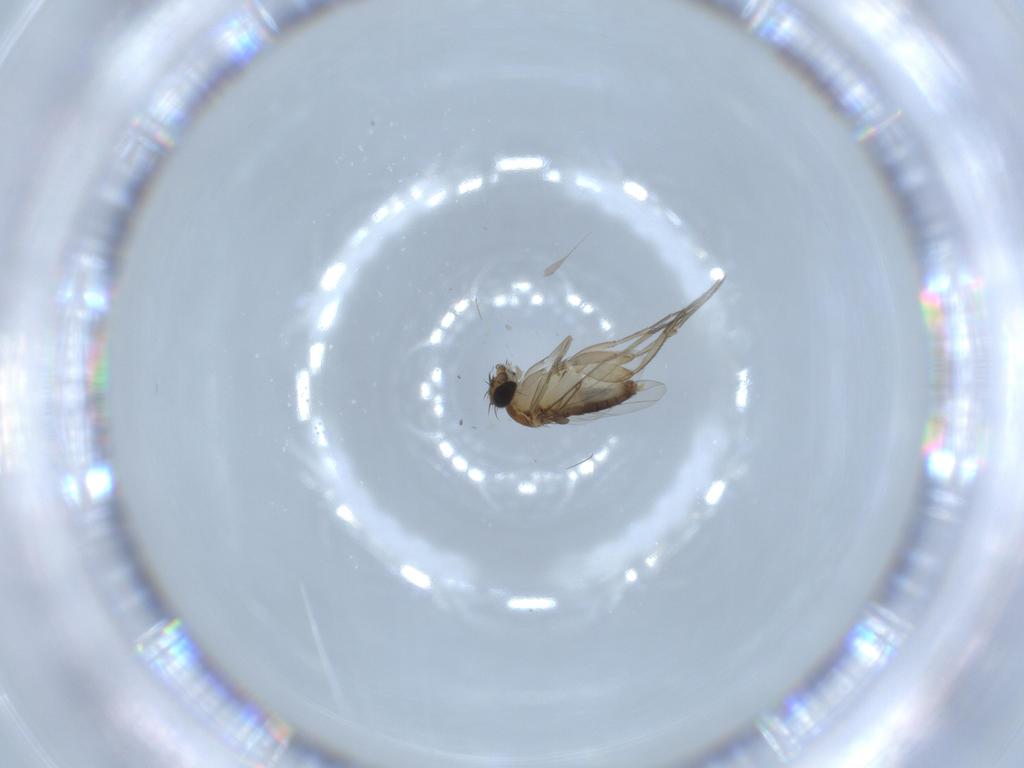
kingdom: Animalia
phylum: Arthropoda
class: Insecta
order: Diptera
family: Phoridae
